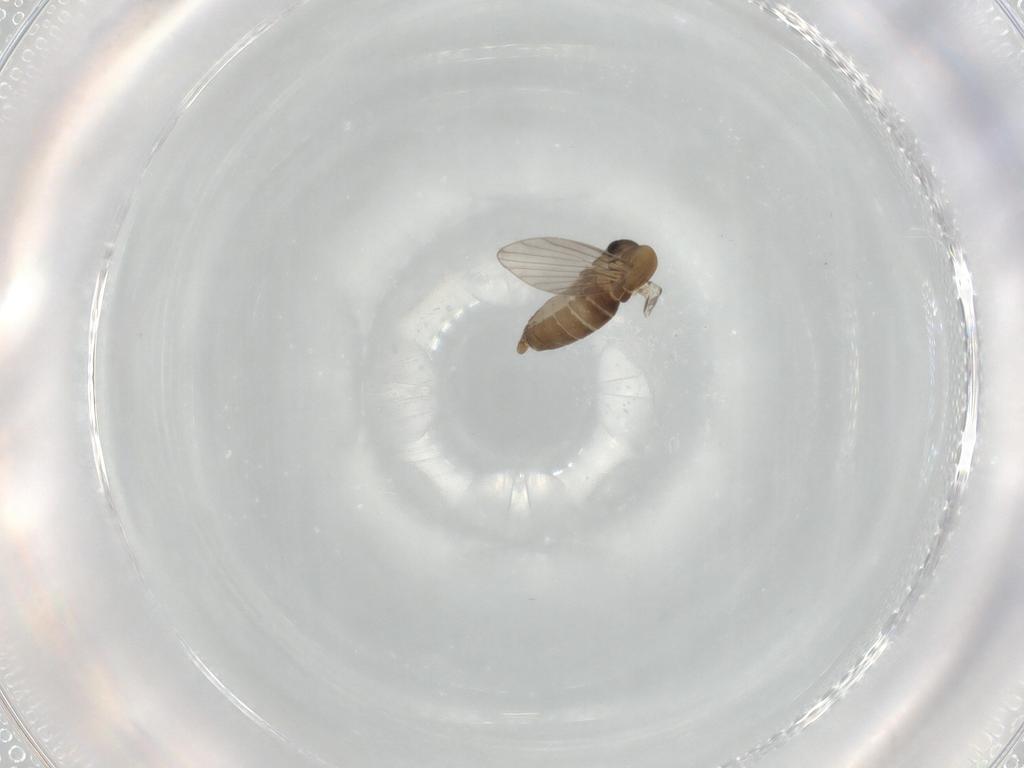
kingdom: Animalia
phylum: Arthropoda
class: Insecta
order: Diptera
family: Psychodidae
